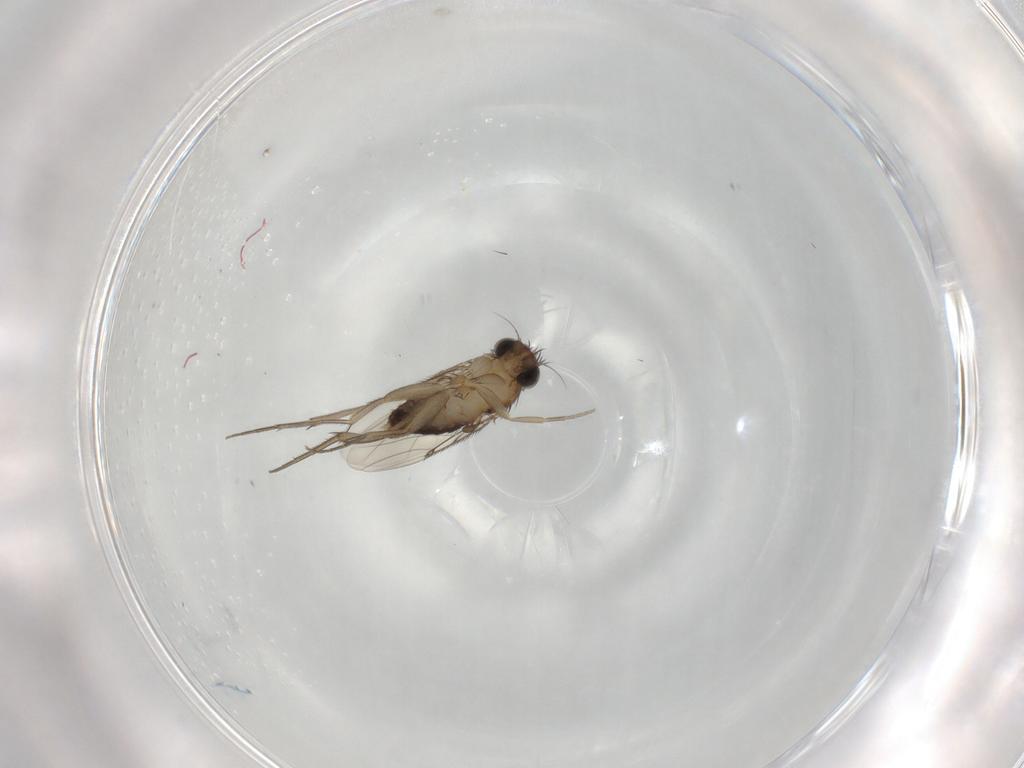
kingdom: Animalia
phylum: Arthropoda
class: Insecta
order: Diptera
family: Phoridae
